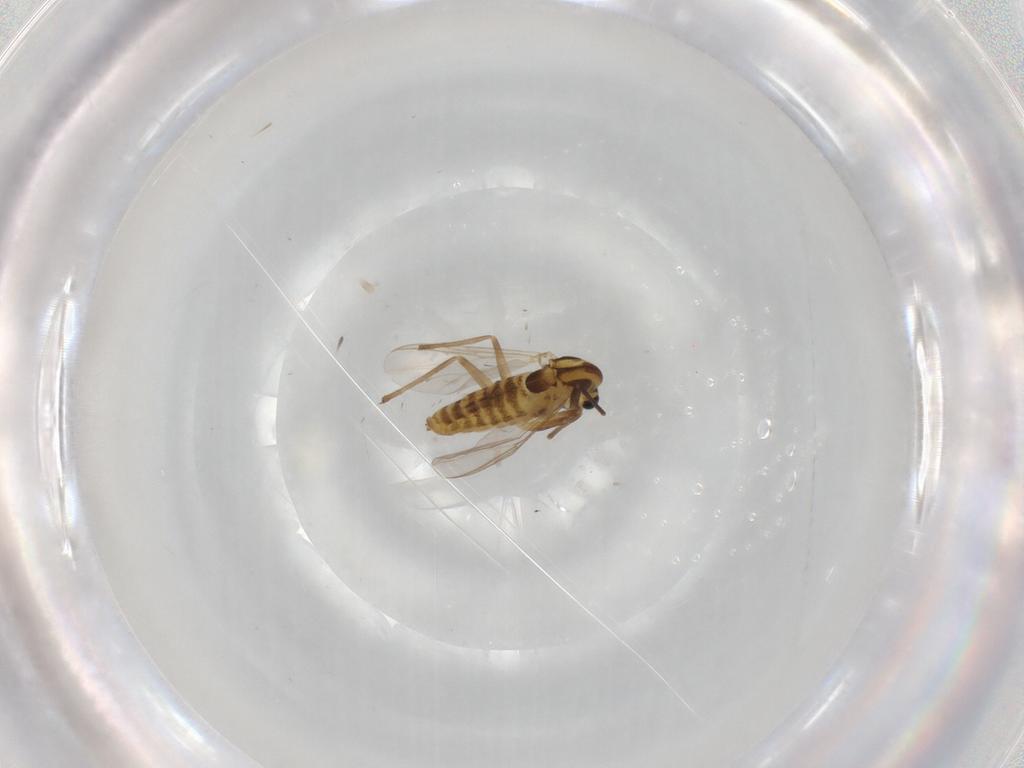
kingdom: Animalia
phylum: Arthropoda
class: Insecta
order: Diptera
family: Chironomidae
